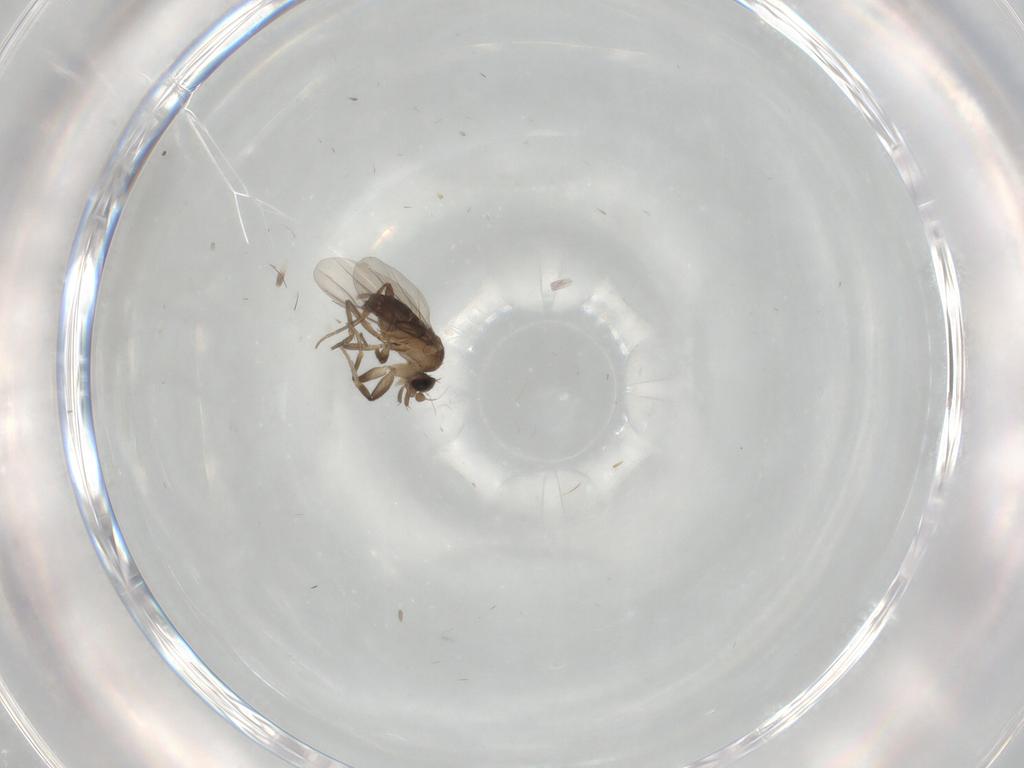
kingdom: Animalia
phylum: Arthropoda
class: Insecta
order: Diptera
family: Phoridae
